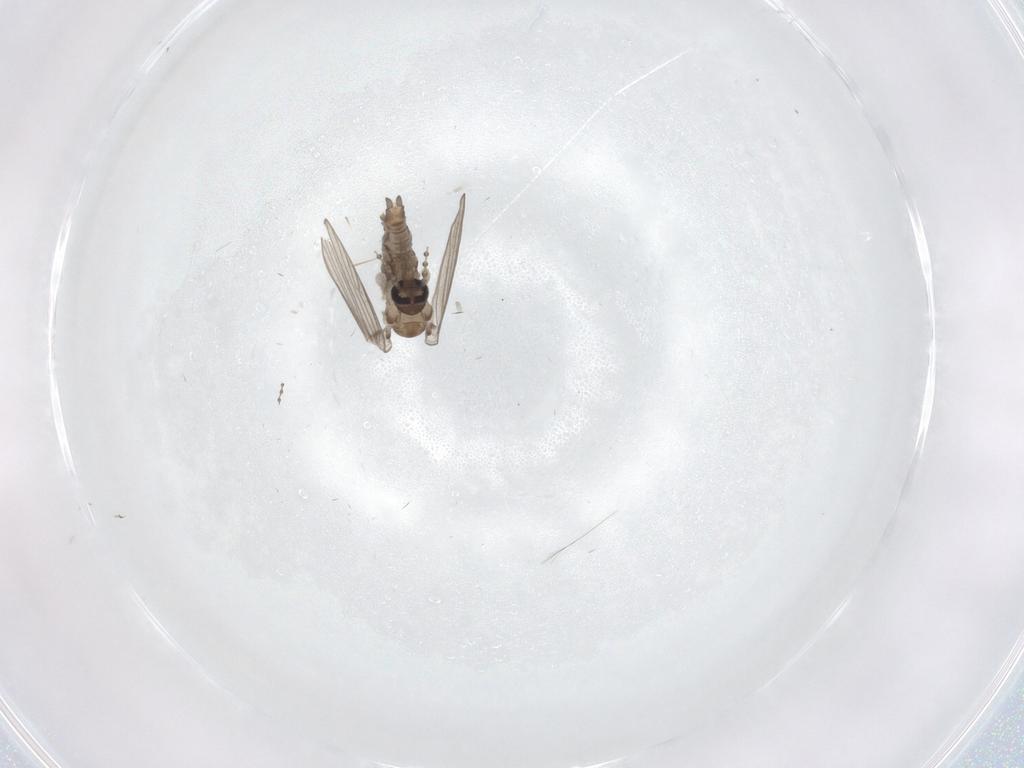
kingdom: Animalia
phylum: Arthropoda
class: Insecta
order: Diptera
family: Psychodidae
